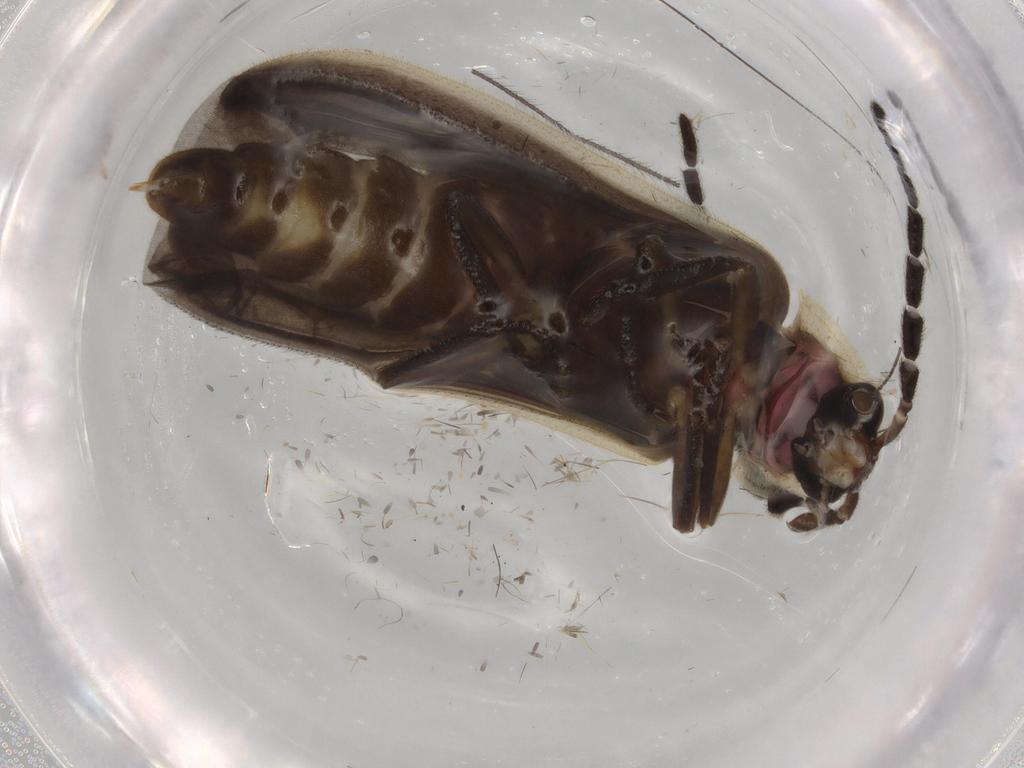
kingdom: Animalia
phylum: Arthropoda
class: Insecta
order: Coleoptera
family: Lampyridae
